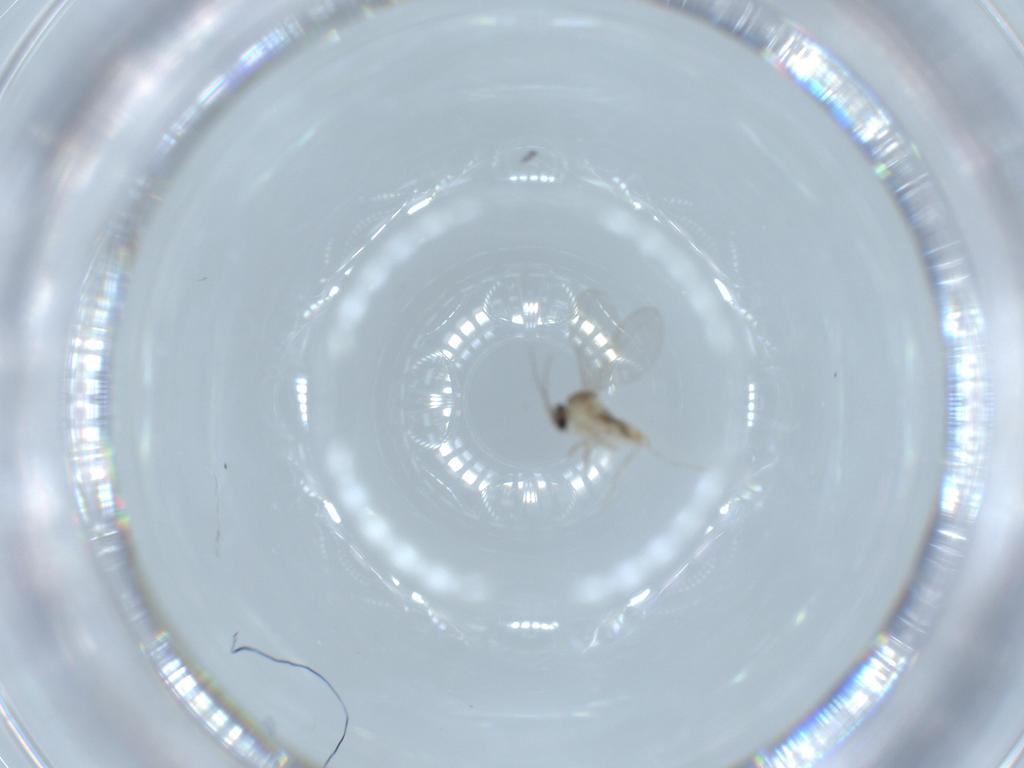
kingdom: Animalia
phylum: Arthropoda
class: Insecta
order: Diptera
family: Cecidomyiidae
